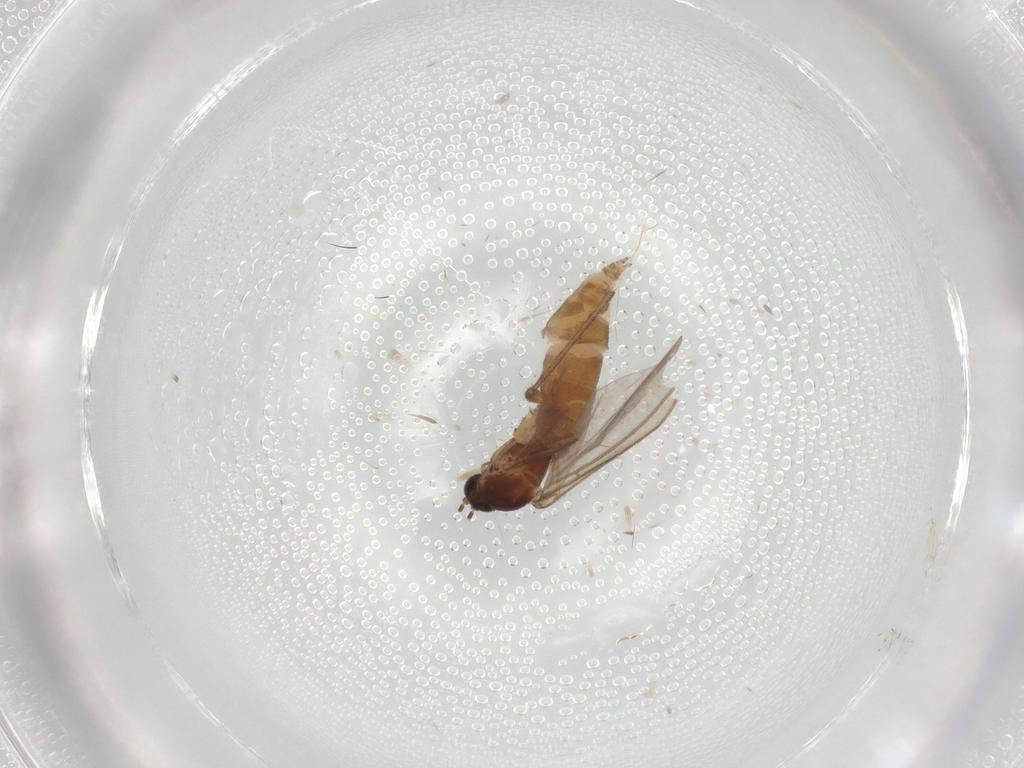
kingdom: Animalia
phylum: Arthropoda
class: Insecta
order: Diptera
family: Sciaridae
